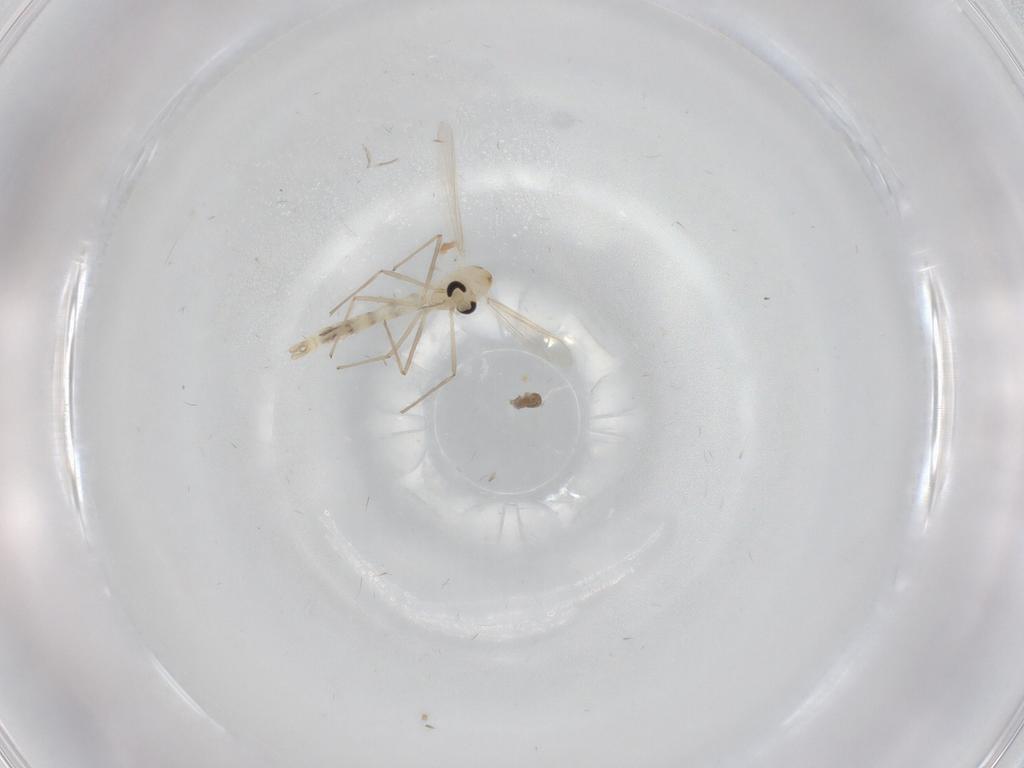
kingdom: Animalia
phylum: Arthropoda
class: Insecta
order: Diptera
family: Chironomidae
